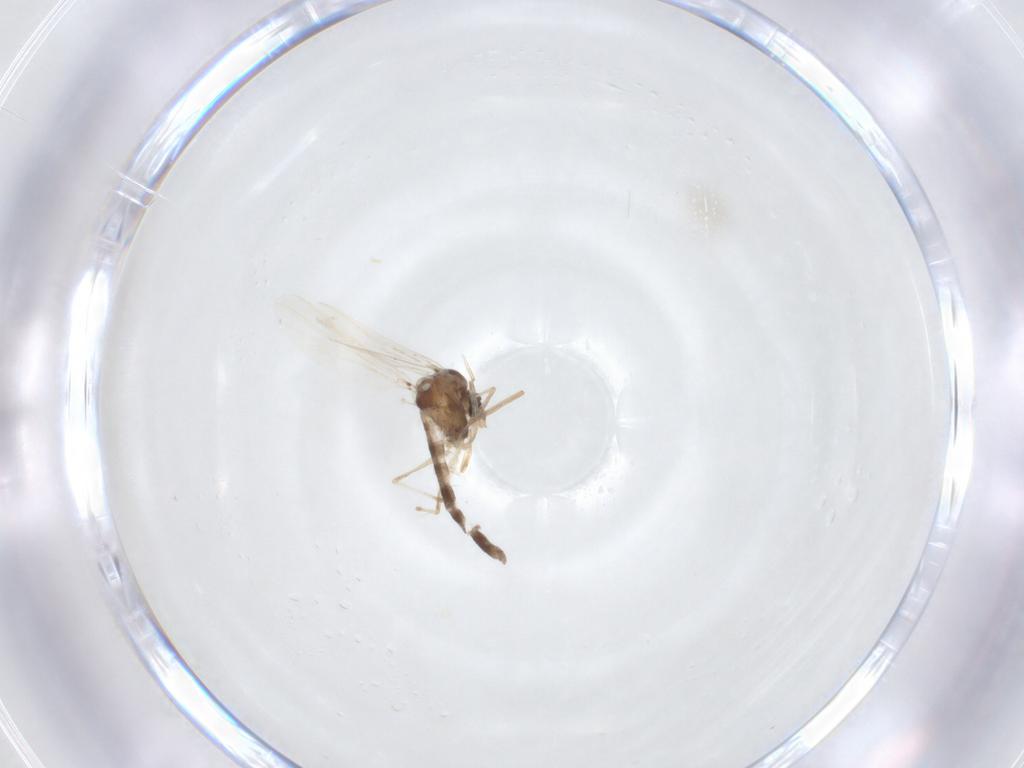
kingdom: Animalia
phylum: Arthropoda
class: Insecta
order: Diptera
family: Chironomidae
